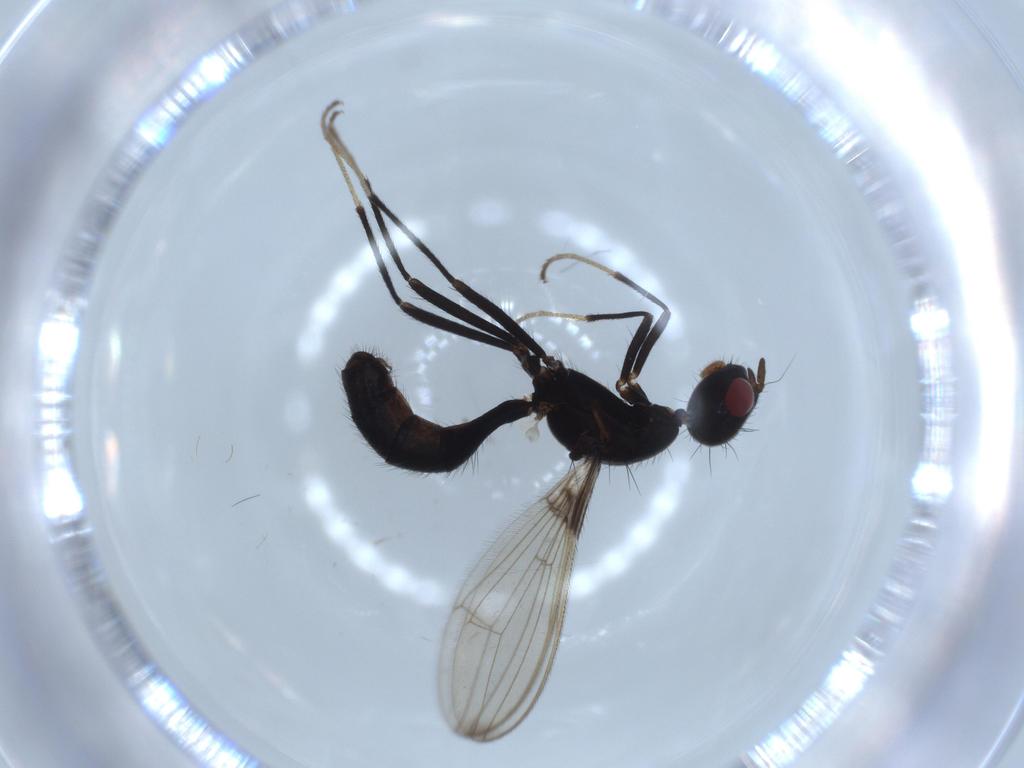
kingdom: Animalia
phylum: Arthropoda
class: Insecta
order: Diptera
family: Richardiidae
